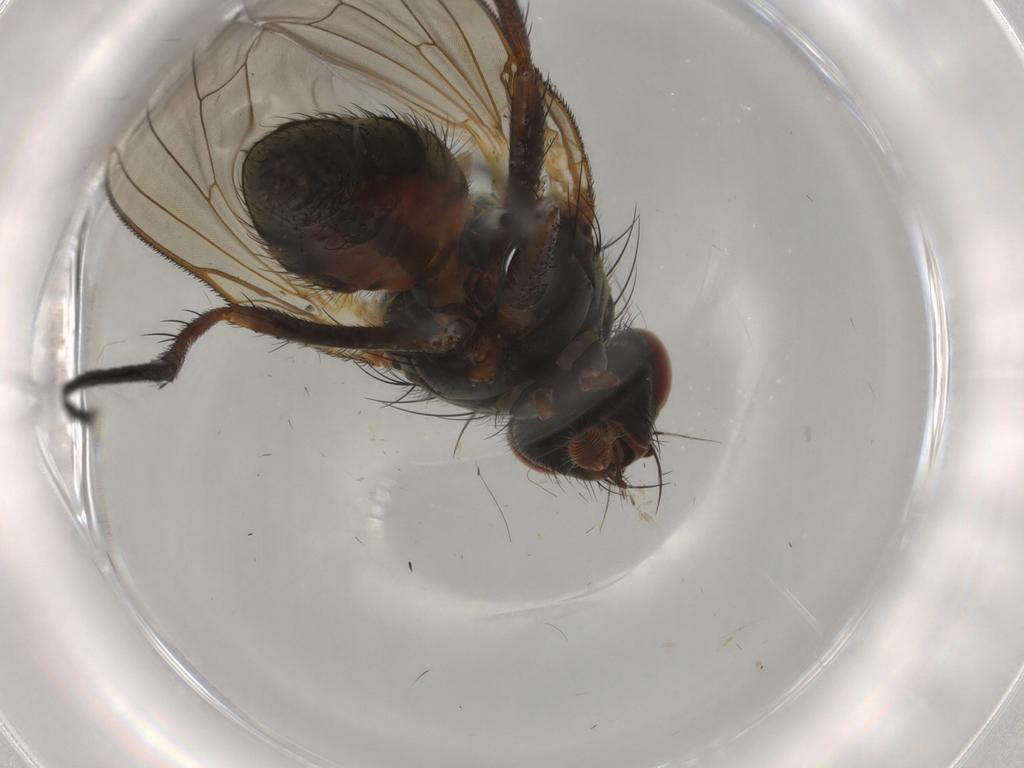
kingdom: Animalia
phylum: Arthropoda
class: Insecta
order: Diptera
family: Anthomyiidae
